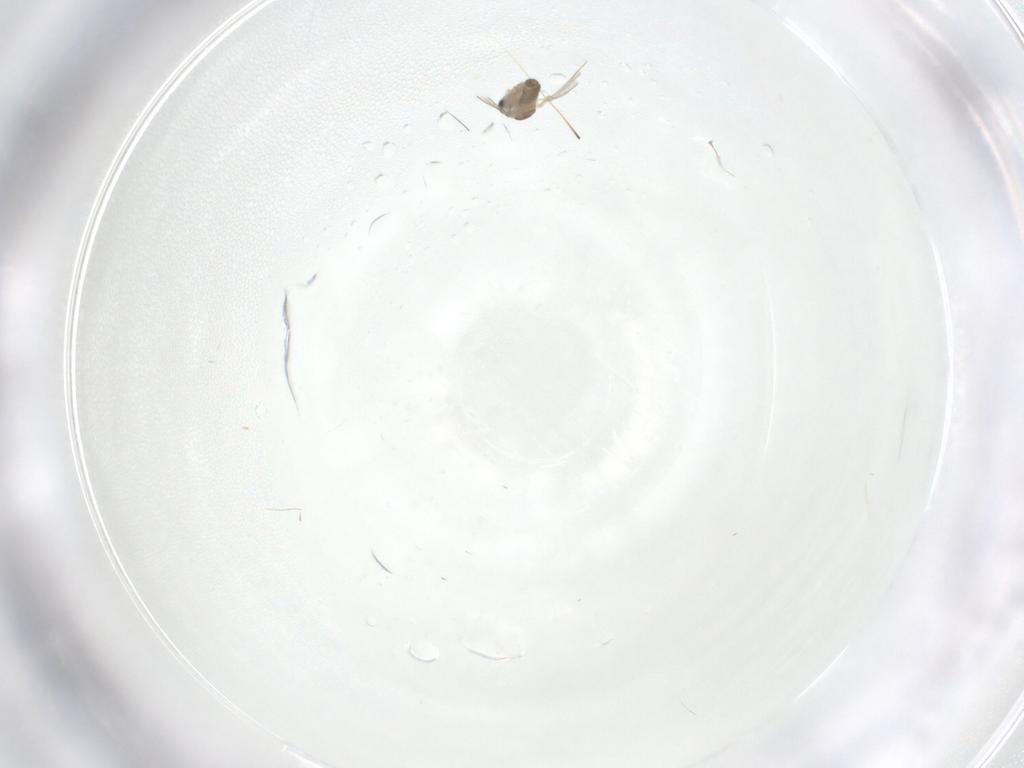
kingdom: Animalia
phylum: Arthropoda
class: Insecta
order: Diptera
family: Cecidomyiidae
